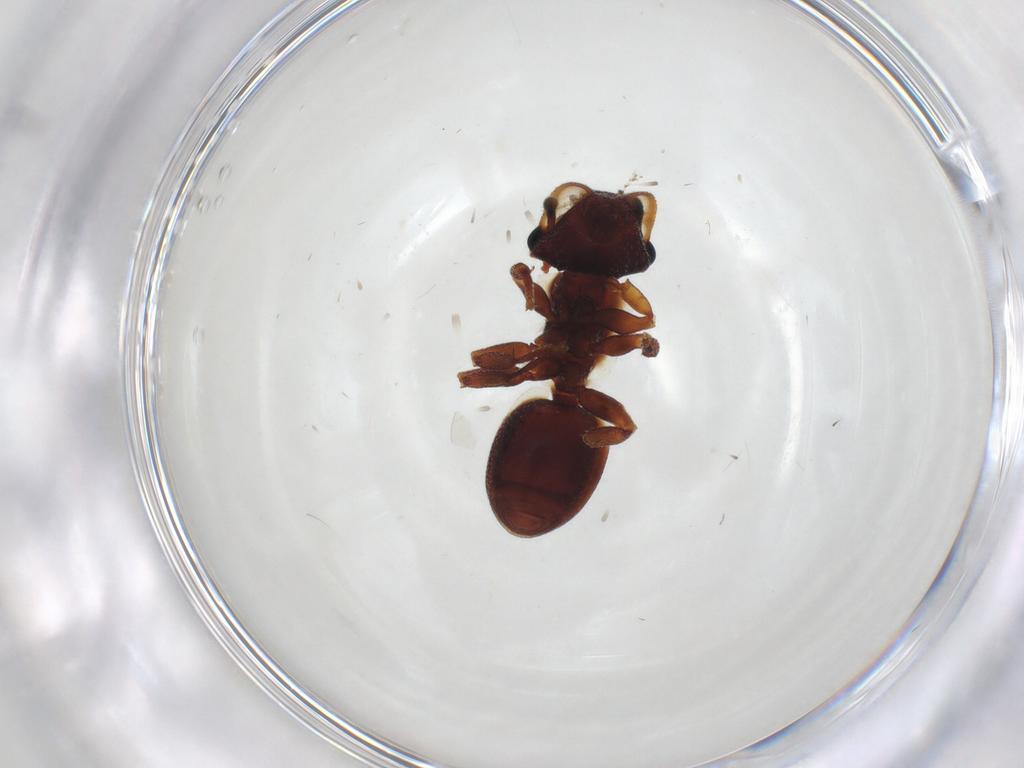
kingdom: Animalia
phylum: Arthropoda
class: Insecta
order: Hymenoptera
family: Formicidae
